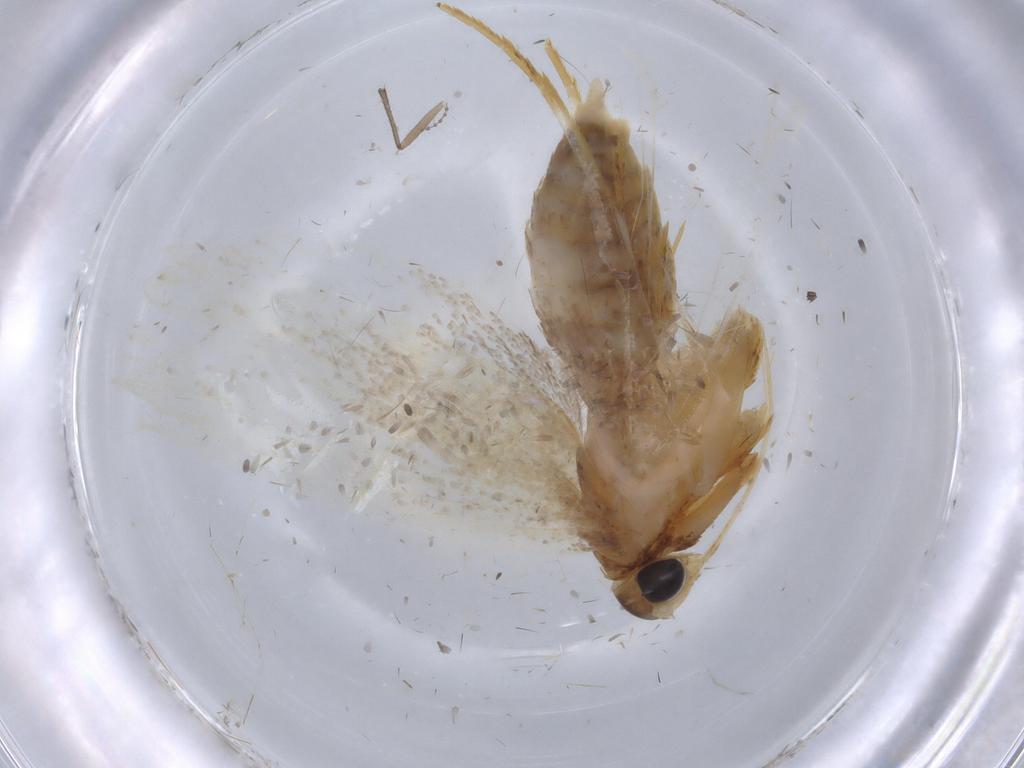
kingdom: Animalia
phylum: Arthropoda
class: Insecta
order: Lepidoptera
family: Lecithoceridae
